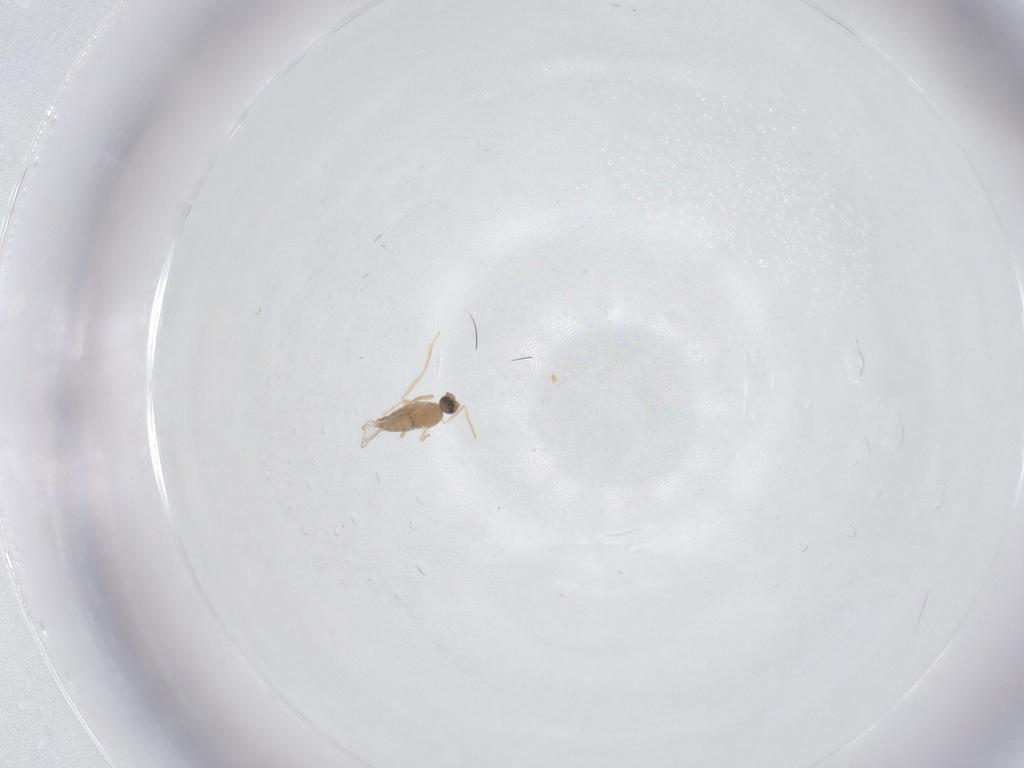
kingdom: Animalia
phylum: Arthropoda
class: Insecta
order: Diptera
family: Cecidomyiidae
